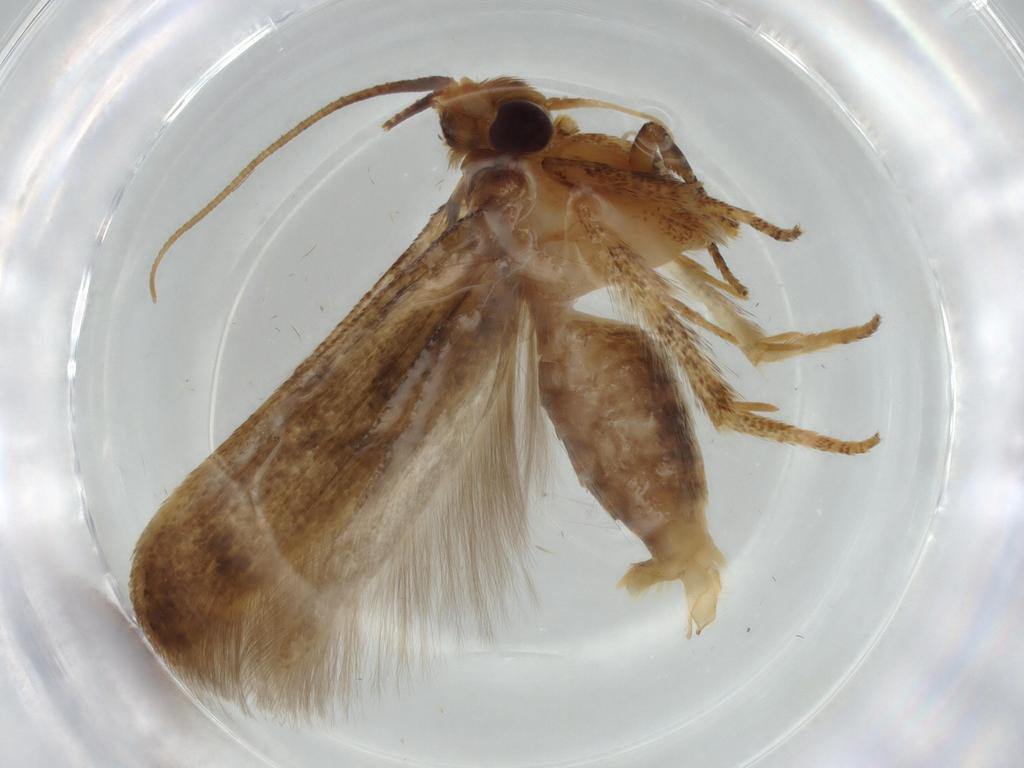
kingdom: Animalia
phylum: Arthropoda
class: Insecta
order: Lepidoptera
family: Coleophoridae
